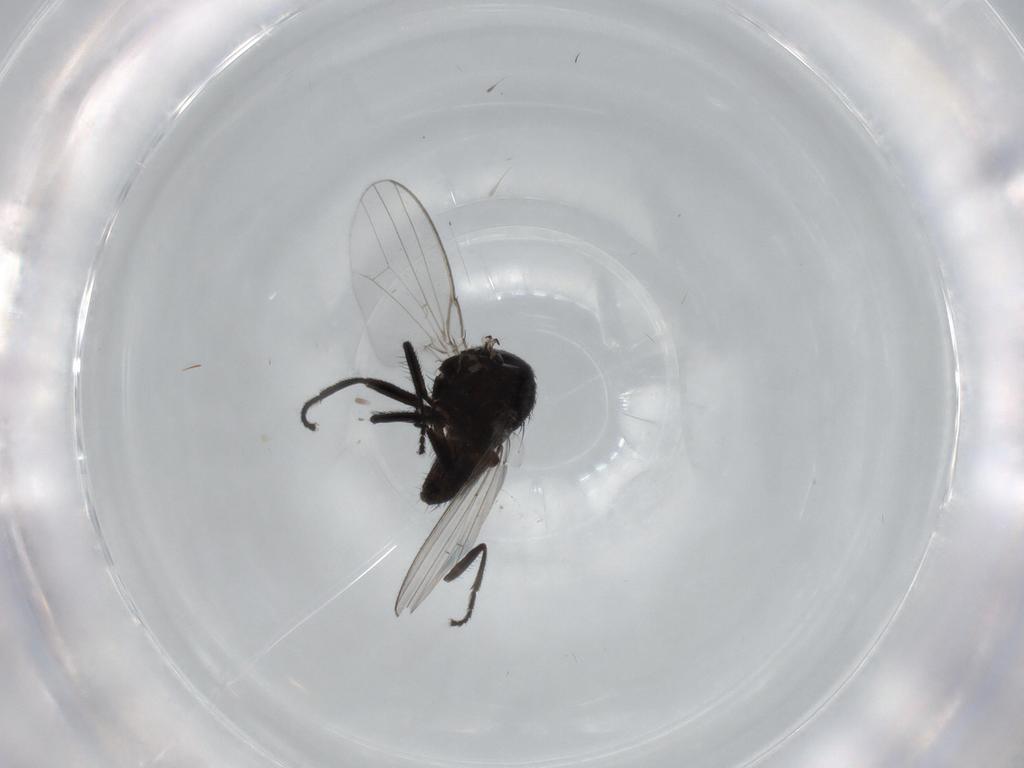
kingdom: Animalia
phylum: Arthropoda
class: Insecta
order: Diptera
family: Milichiidae
